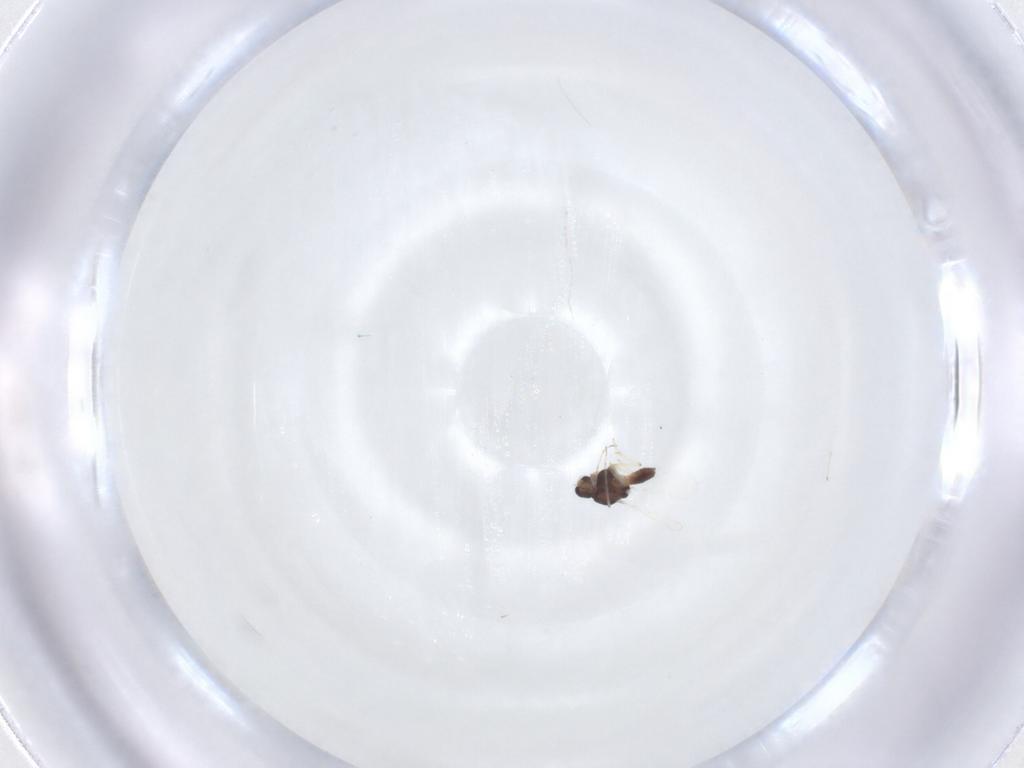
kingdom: Animalia
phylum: Arthropoda
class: Insecta
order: Diptera
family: Chironomidae
